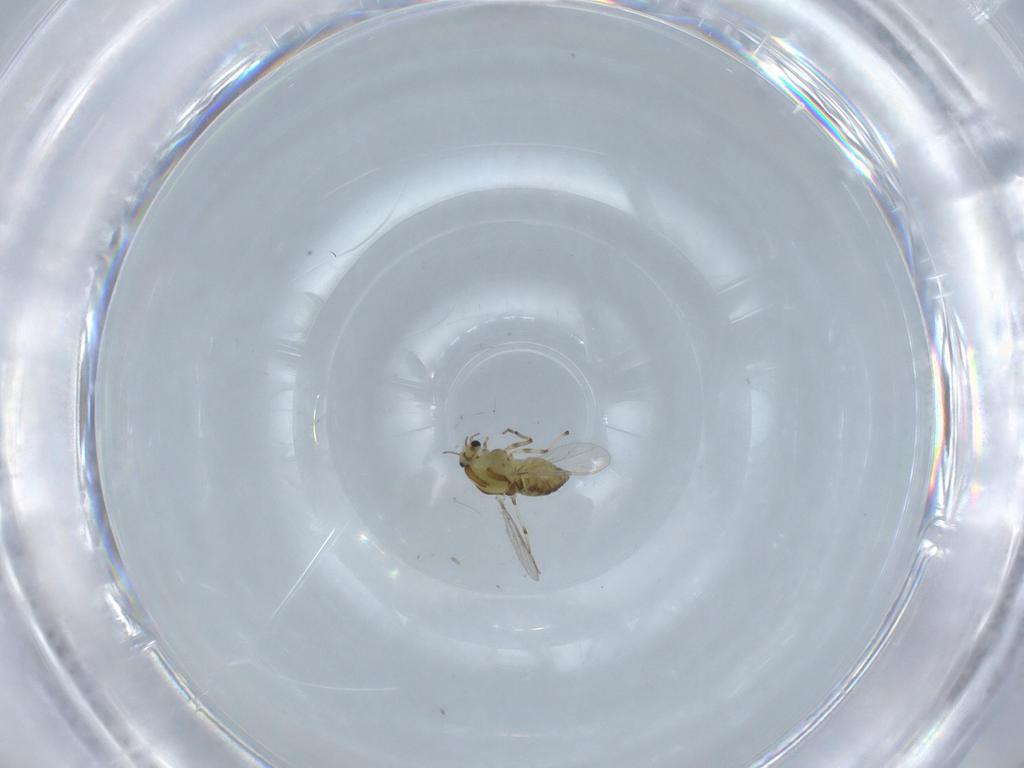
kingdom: Animalia
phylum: Arthropoda
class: Insecta
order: Diptera
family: Chironomidae
